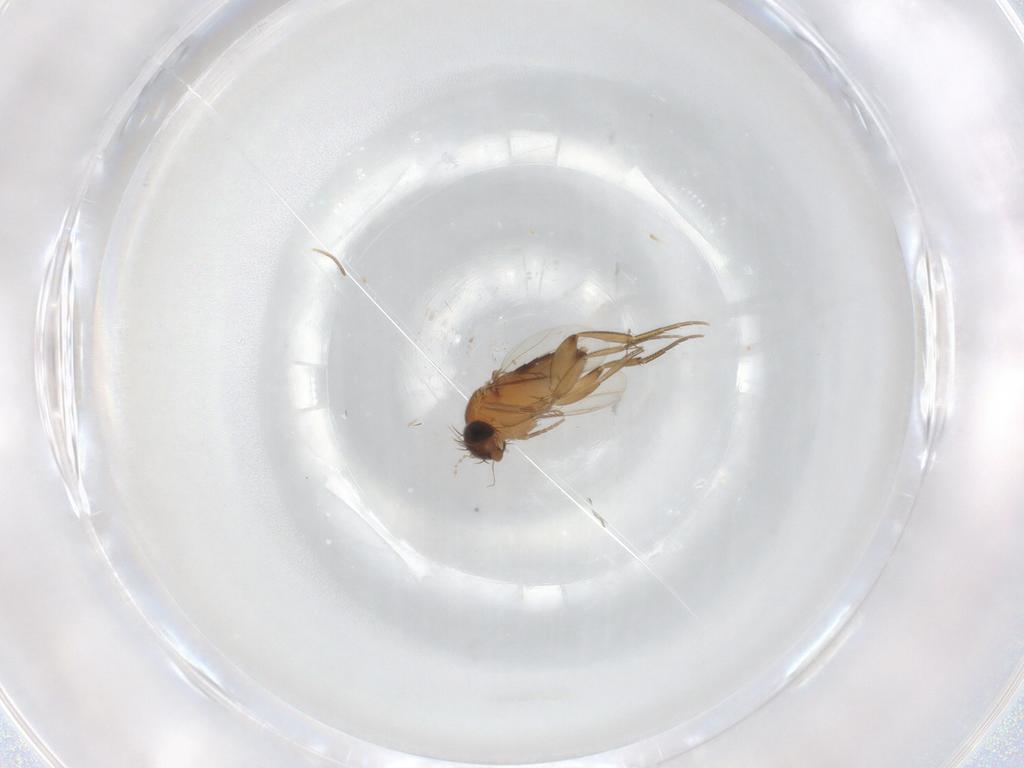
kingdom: Animalia
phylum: Arthropoda
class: Insecta
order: Diptera
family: Phoridae
